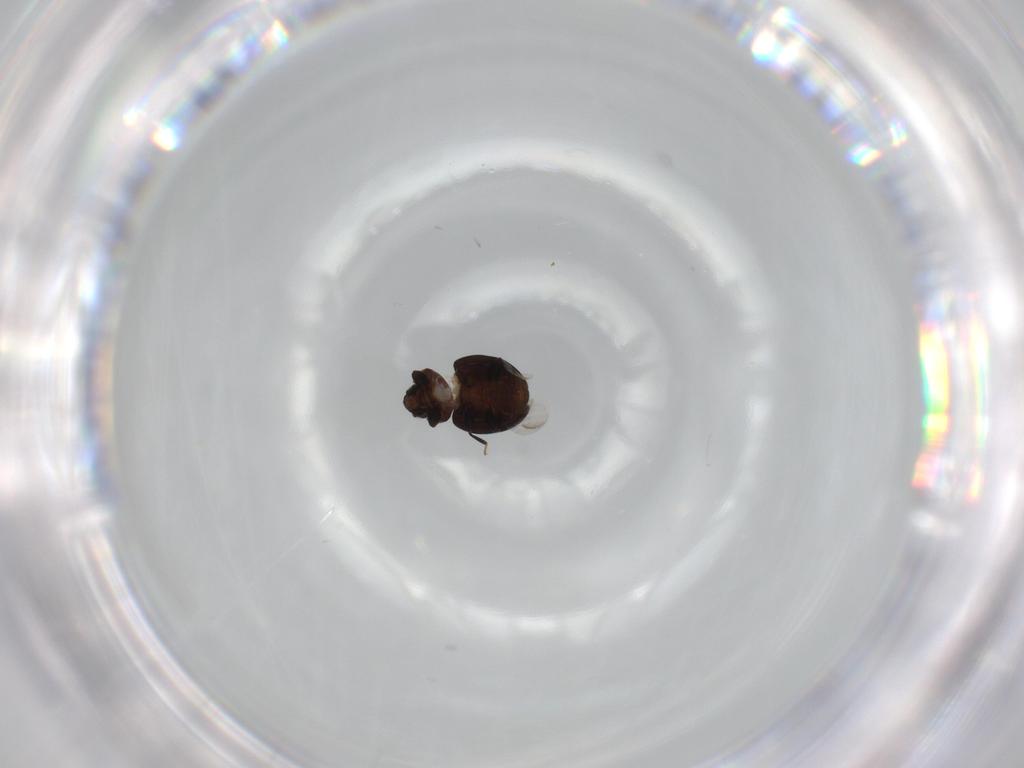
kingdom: Animalia
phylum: Arthropoda
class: Insecta
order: Coleoptera
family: Coccinellidae
